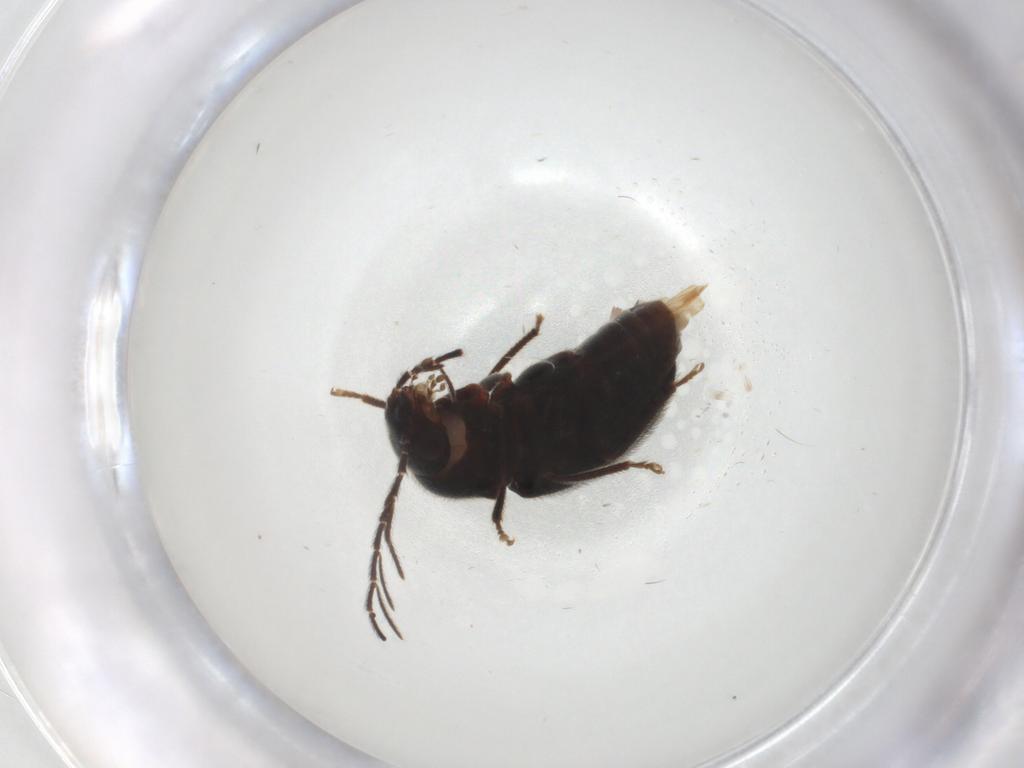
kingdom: Animalia
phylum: Arthropoda
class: Insecta
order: Coleoptera
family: Ptilodactylidae
